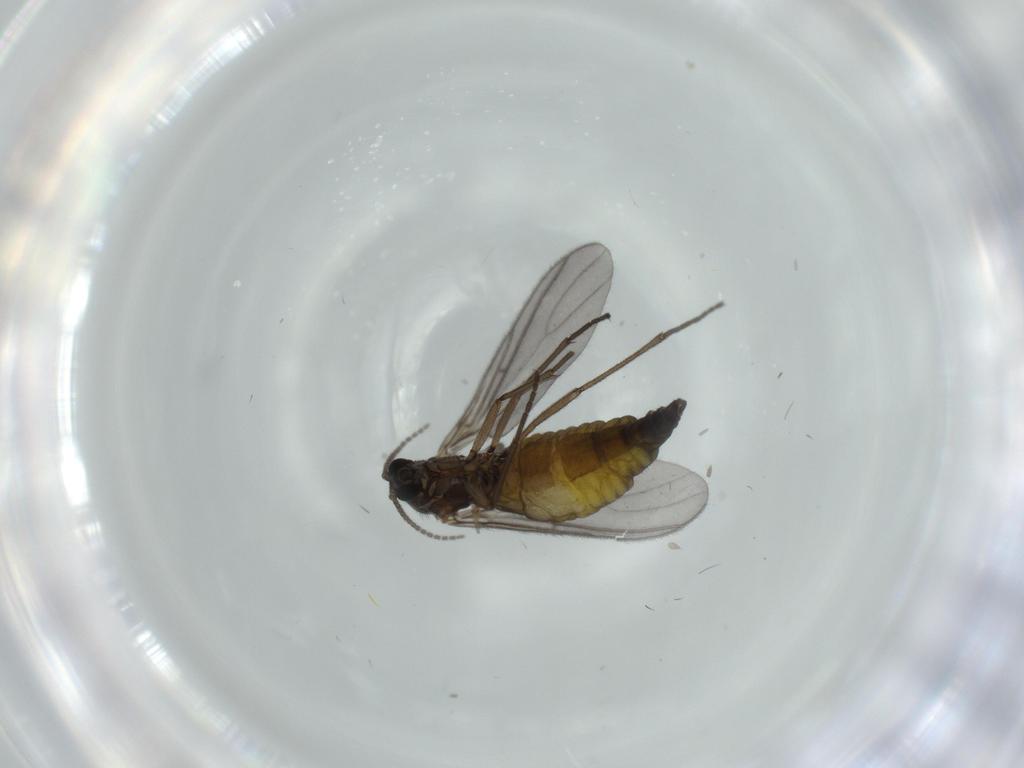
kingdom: Animalia
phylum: Arthropoda
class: Insecta
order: Diptera
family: Sciaridae
